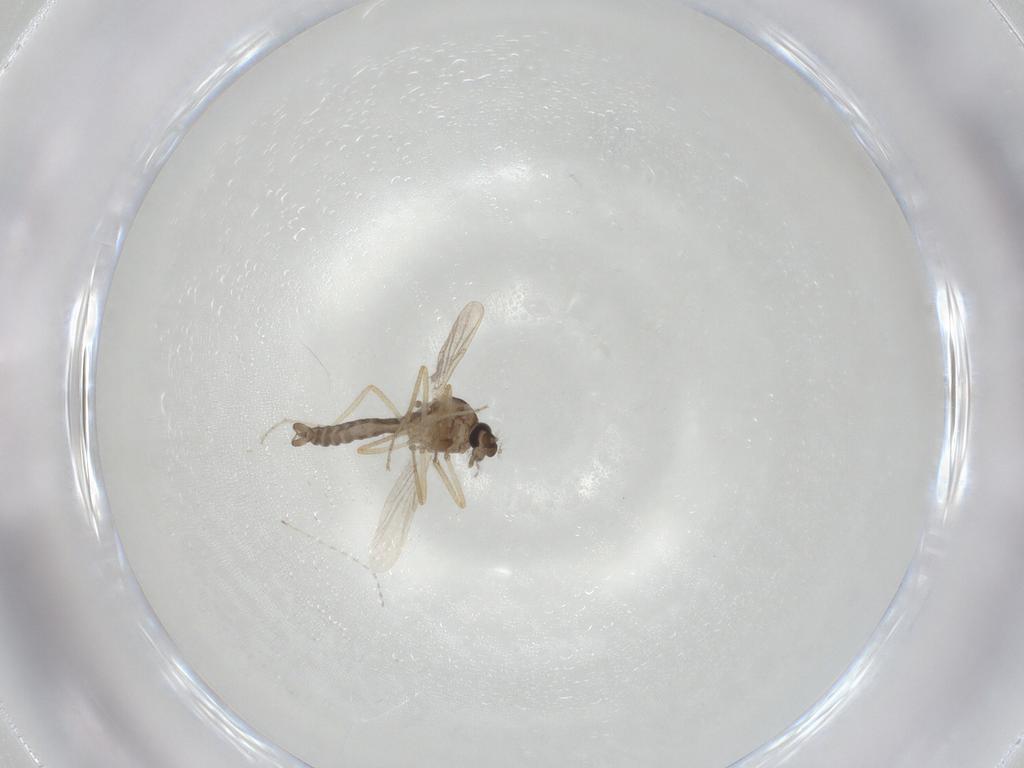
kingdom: Animalia
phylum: Arthropoda
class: Insecta
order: Diptera
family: Ceratopogonidae
